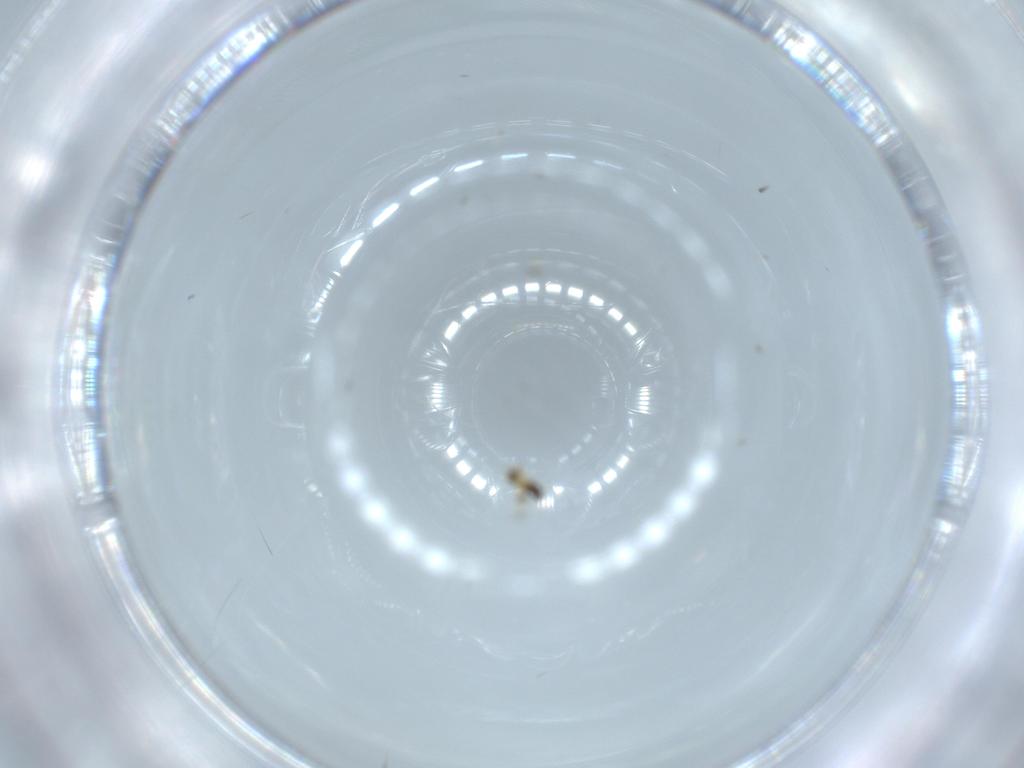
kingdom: Animalia
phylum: Arthropoda
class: Insecta
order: Hymenoptera
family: Signiphoridae
